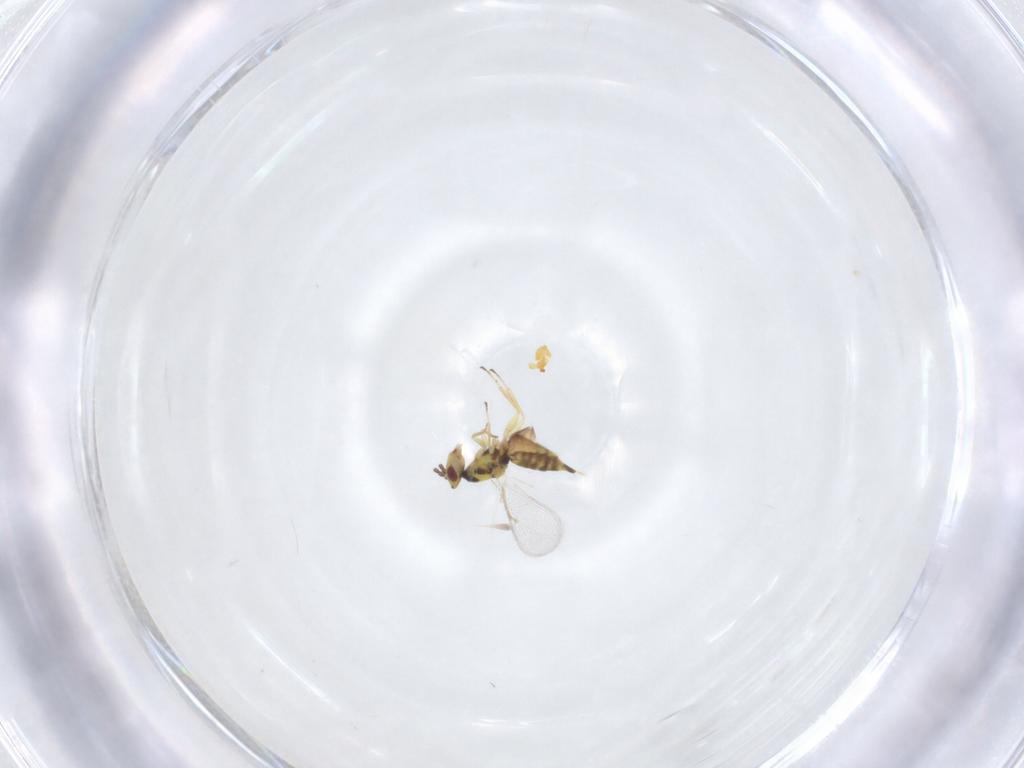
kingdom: Animalia
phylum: Arthropoda
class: Insecta
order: Hymenoptera
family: Eulophidae
